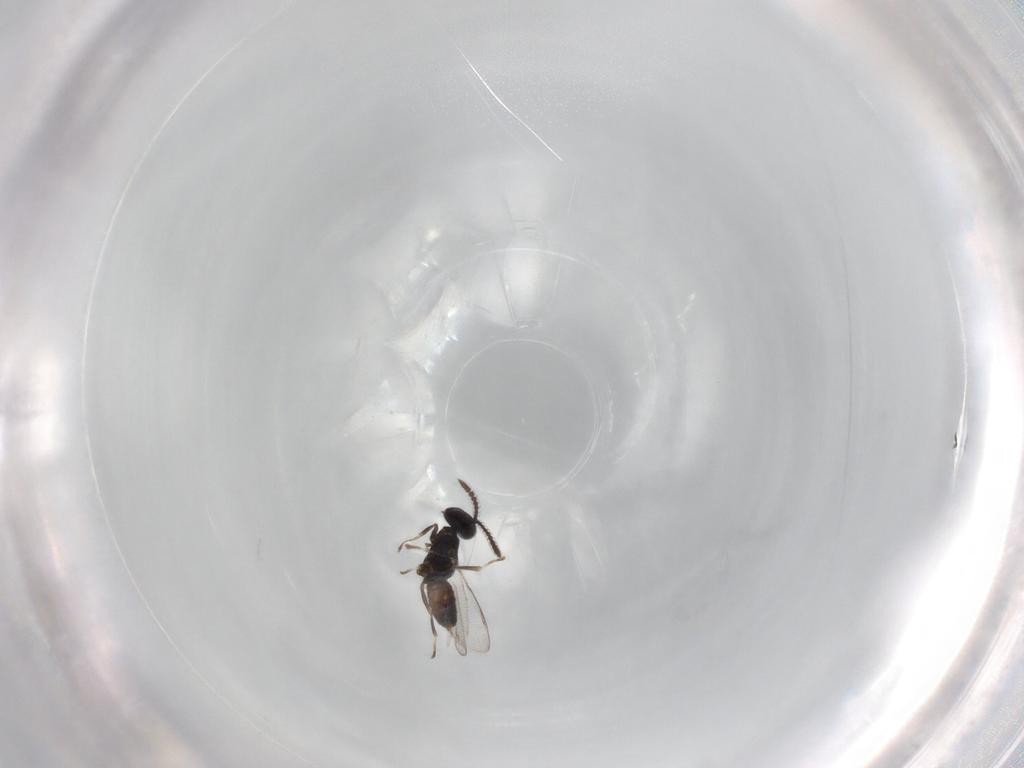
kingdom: Animalia
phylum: Arthropoda
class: Insecta
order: Hymenoptera
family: Eupelmidae
